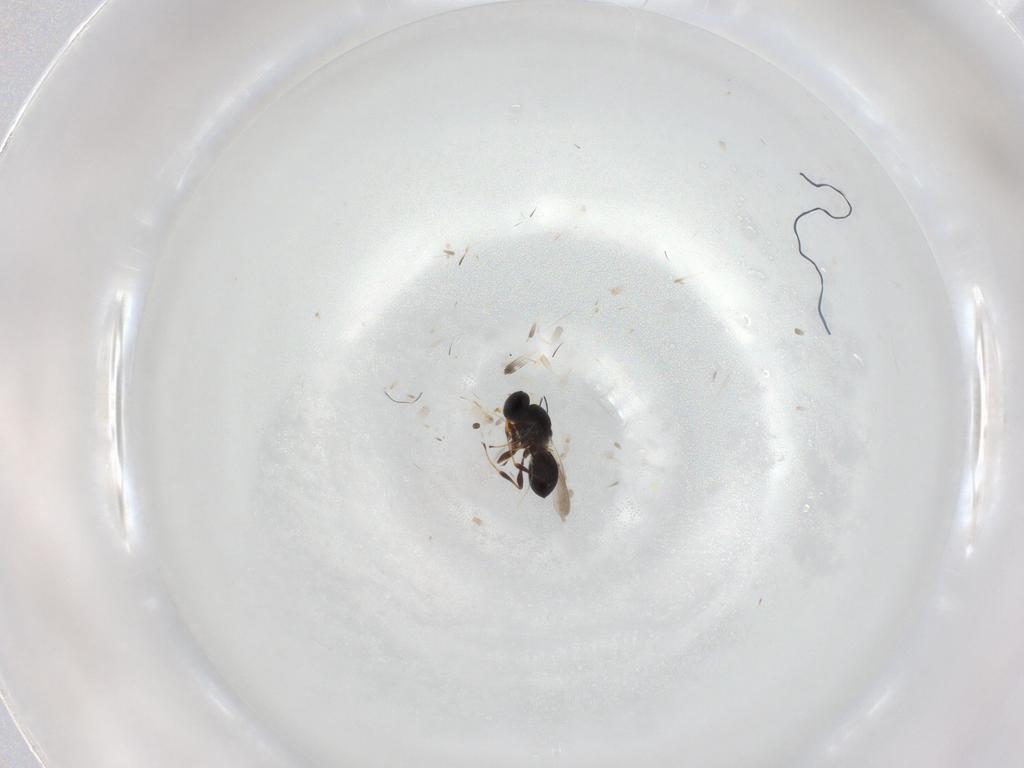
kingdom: Animalia
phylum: Arthropoda
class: Insecta
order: Hymenoptera
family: Platygastridae
